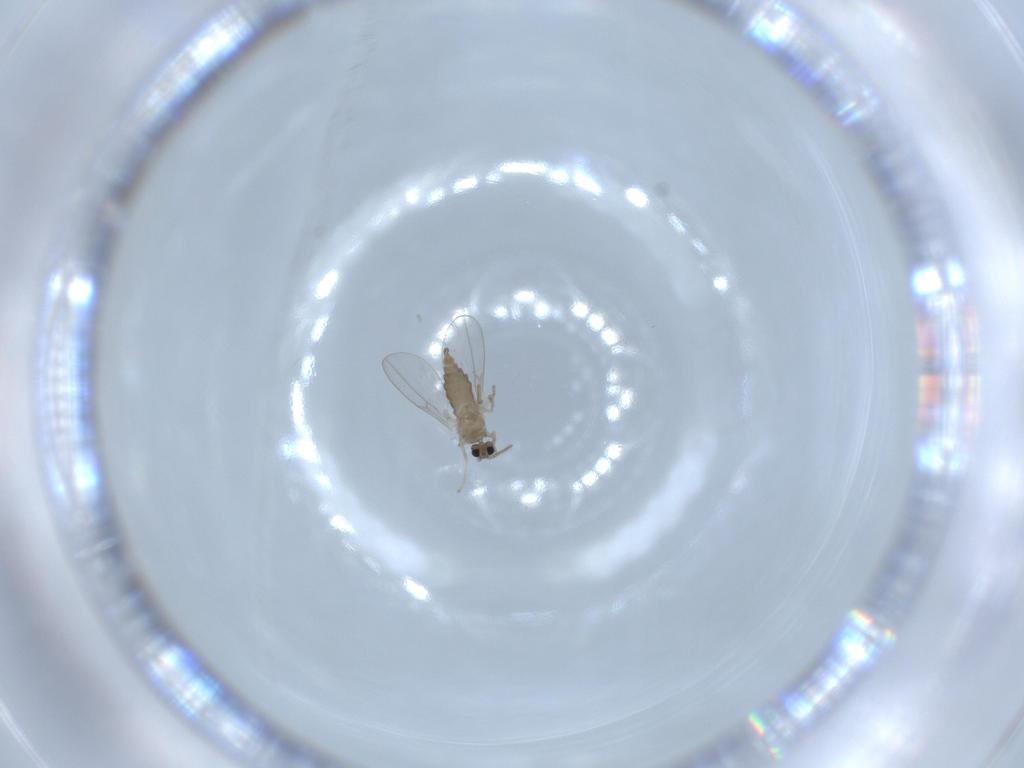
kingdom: Animalia
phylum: Arthropoda
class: Insecta
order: Diptera
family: Cecidomyiidae
